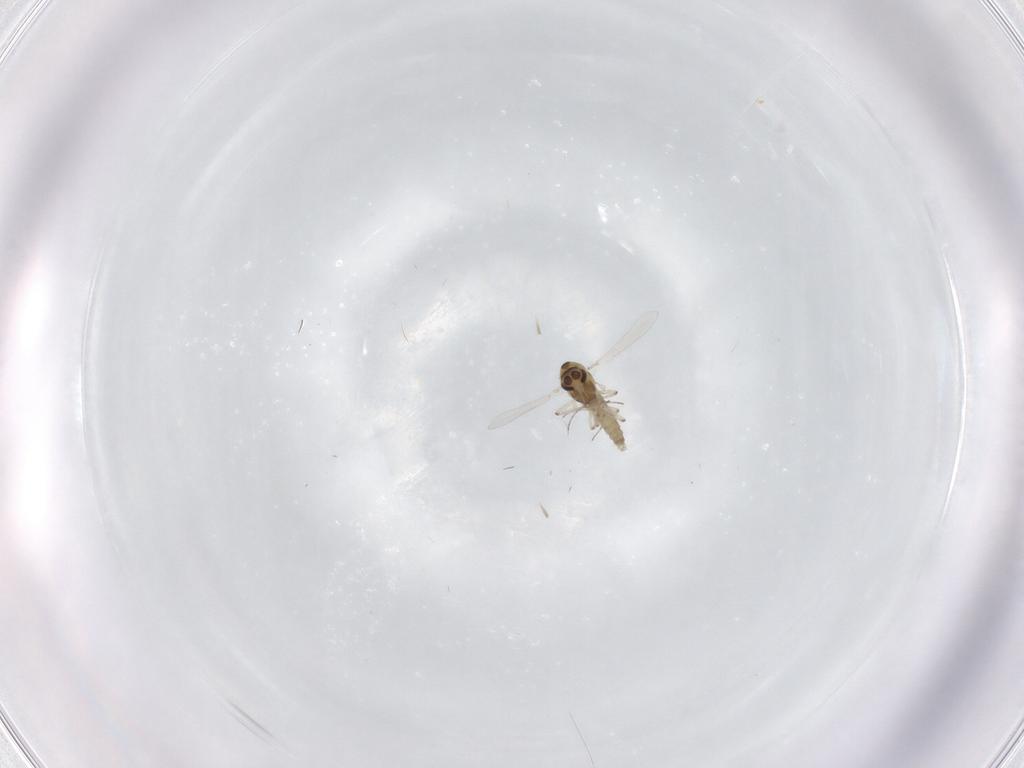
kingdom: Animalia
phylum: Arthropoda
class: Insecta
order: Diptera
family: Chironomidae
